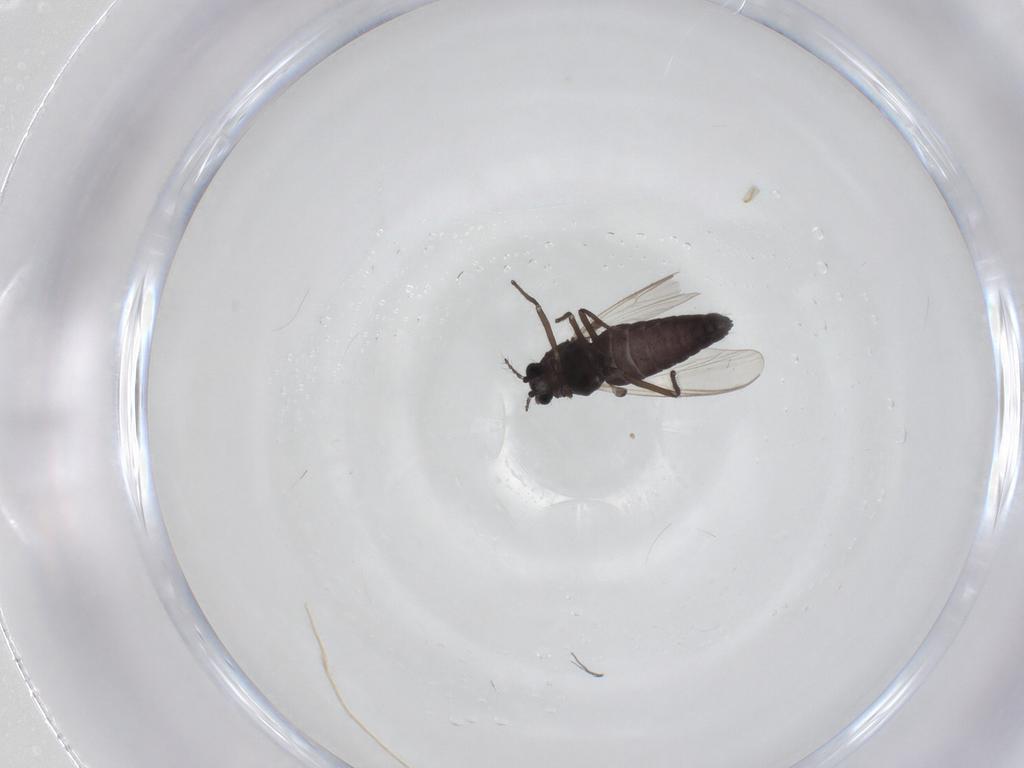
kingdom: Animalia
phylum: Arthropoda
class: Insecta
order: Diptera
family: Chironomidae
